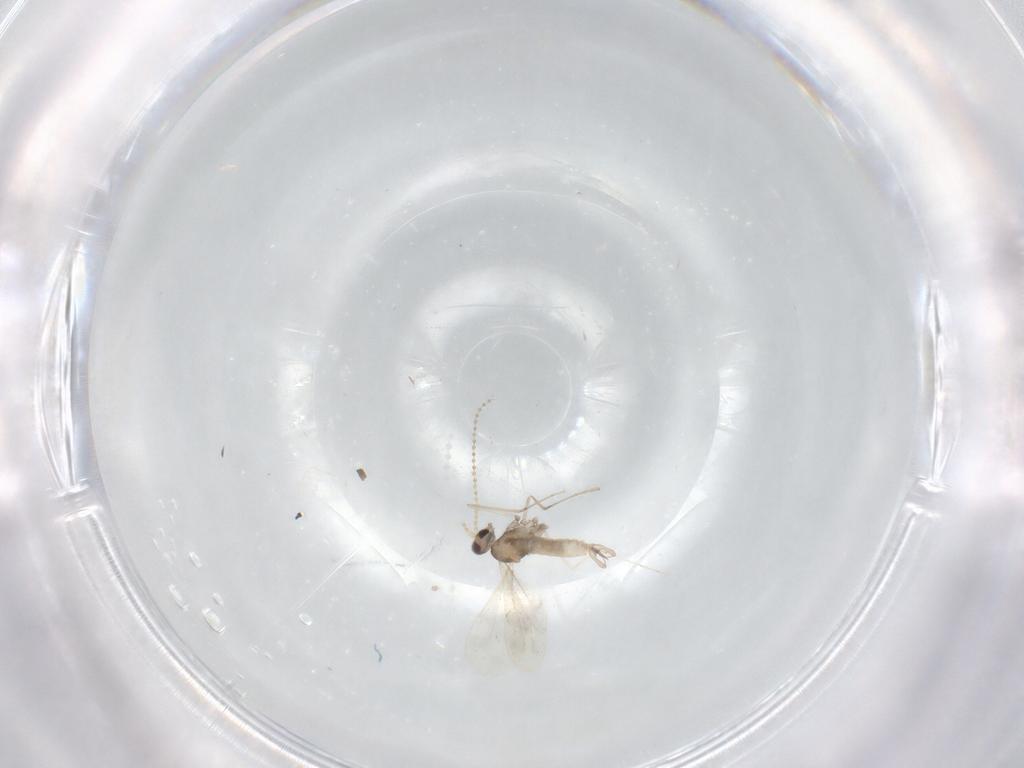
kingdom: Animalia
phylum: Arthropoda
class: Insecta
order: Diptera
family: Cecidomyiidae
